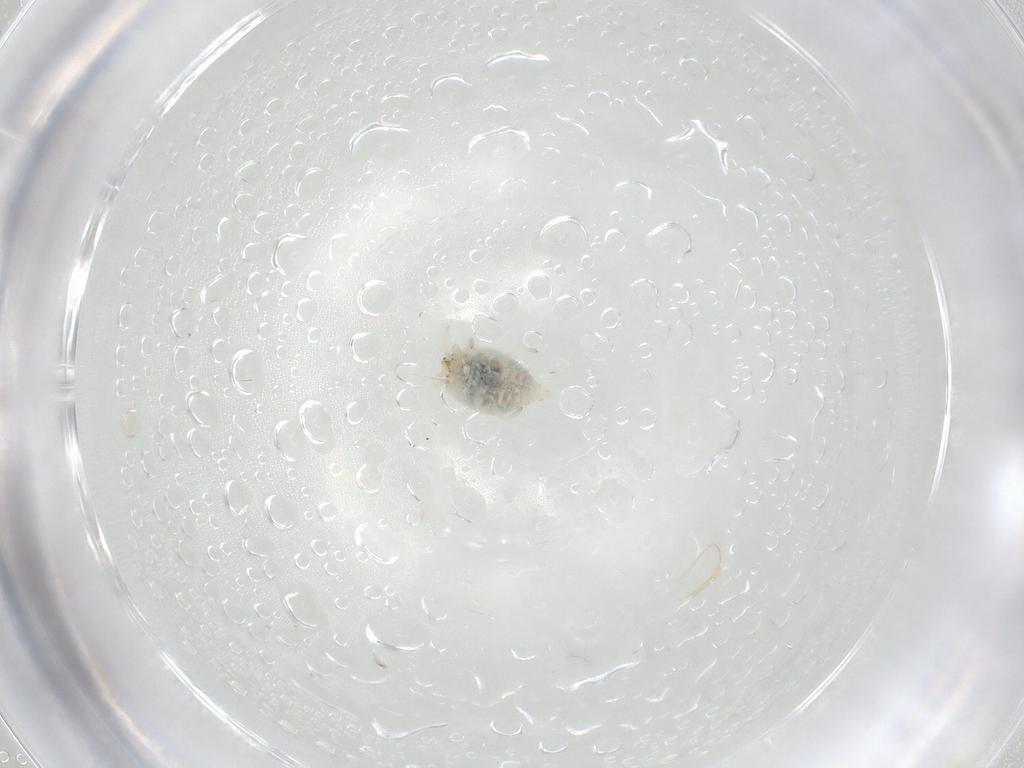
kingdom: Animalia
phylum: Arthropoda
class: Insecta
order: Neuroptera
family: Coniopterygidae
